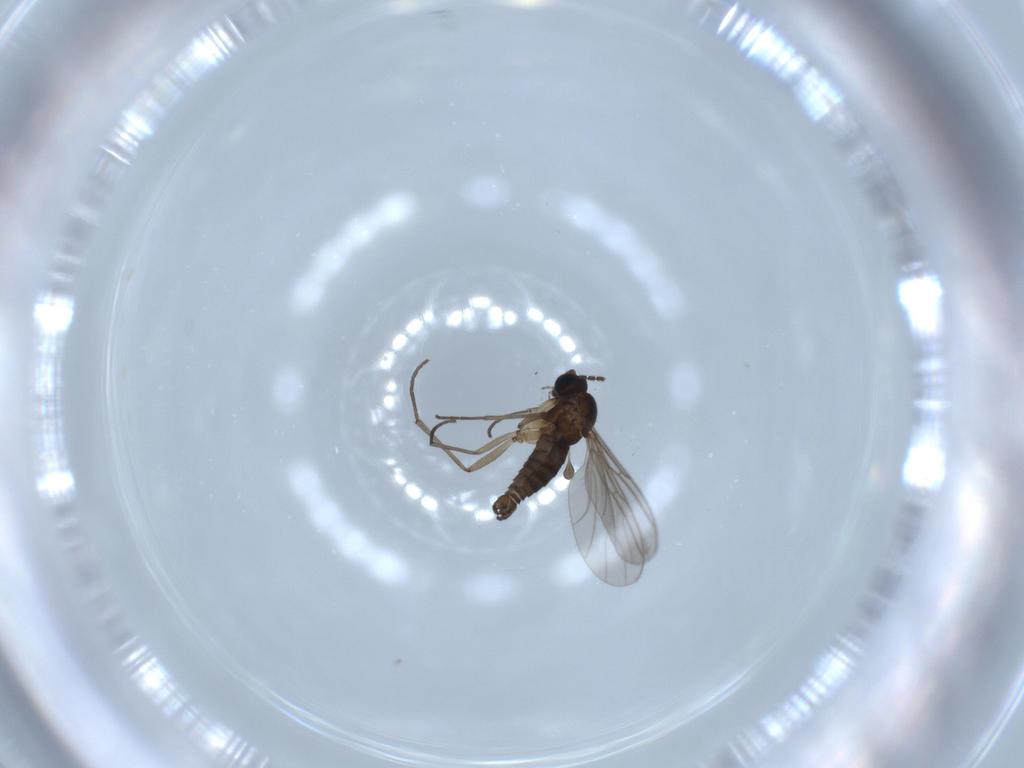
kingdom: Animalia
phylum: Arthropoda
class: Insecta
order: Diptera
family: Sciaridae
